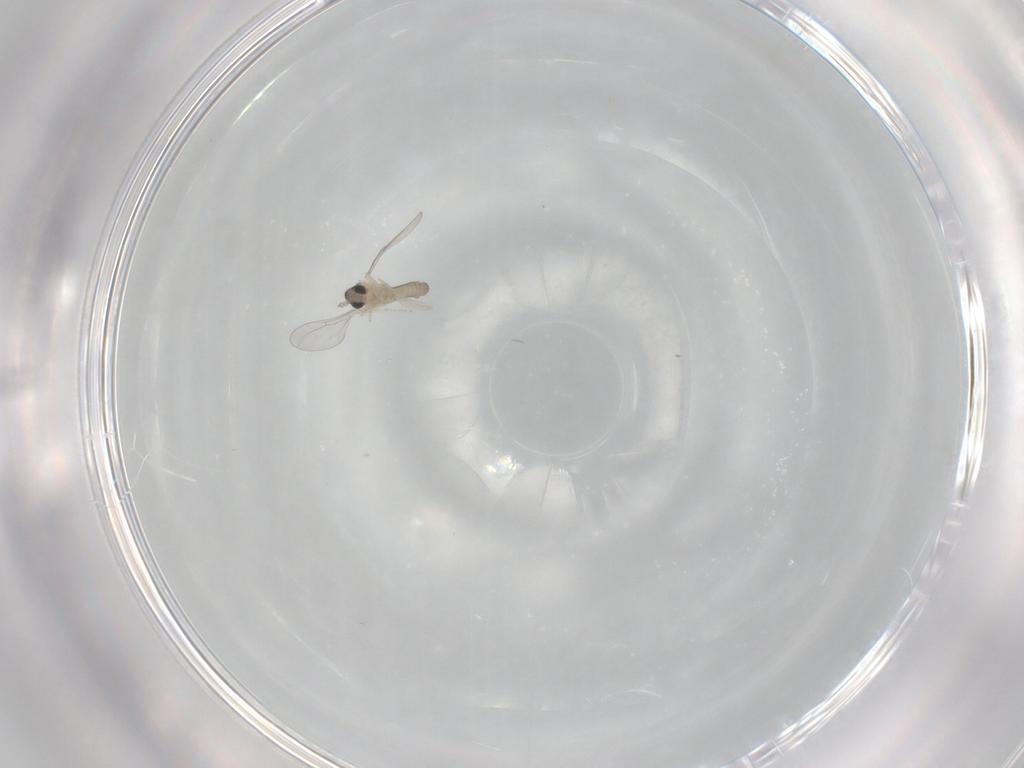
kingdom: Animalia
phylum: Arthropoda
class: Insecta
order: Diptera
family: Cecidomyiidae
